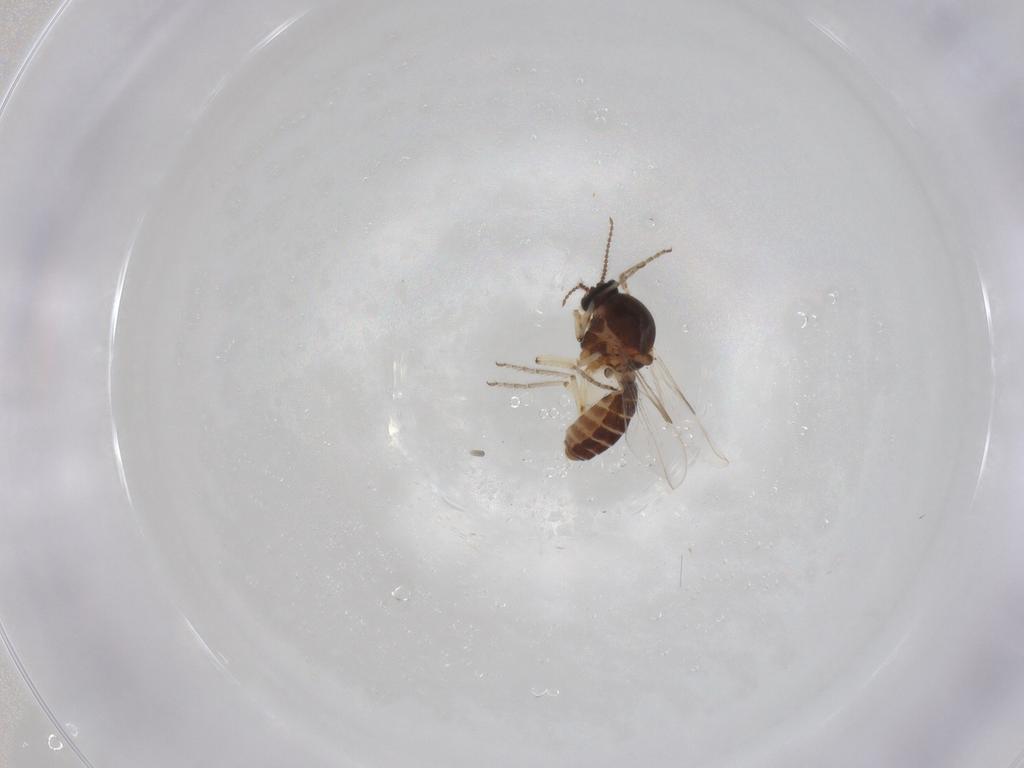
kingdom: Animalia
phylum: Arthropoda
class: Insecta
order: Diptera
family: Ceratopogonidae
